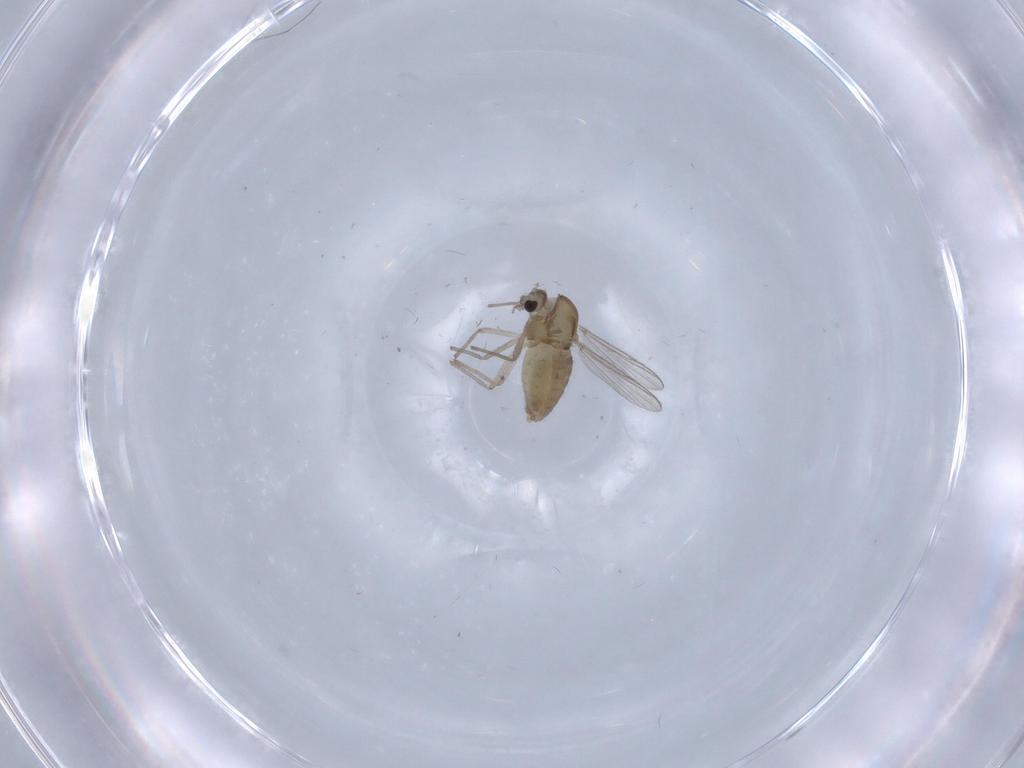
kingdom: Animalia
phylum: Arthropoda
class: Insecta
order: Diptera
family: Chironomidae
